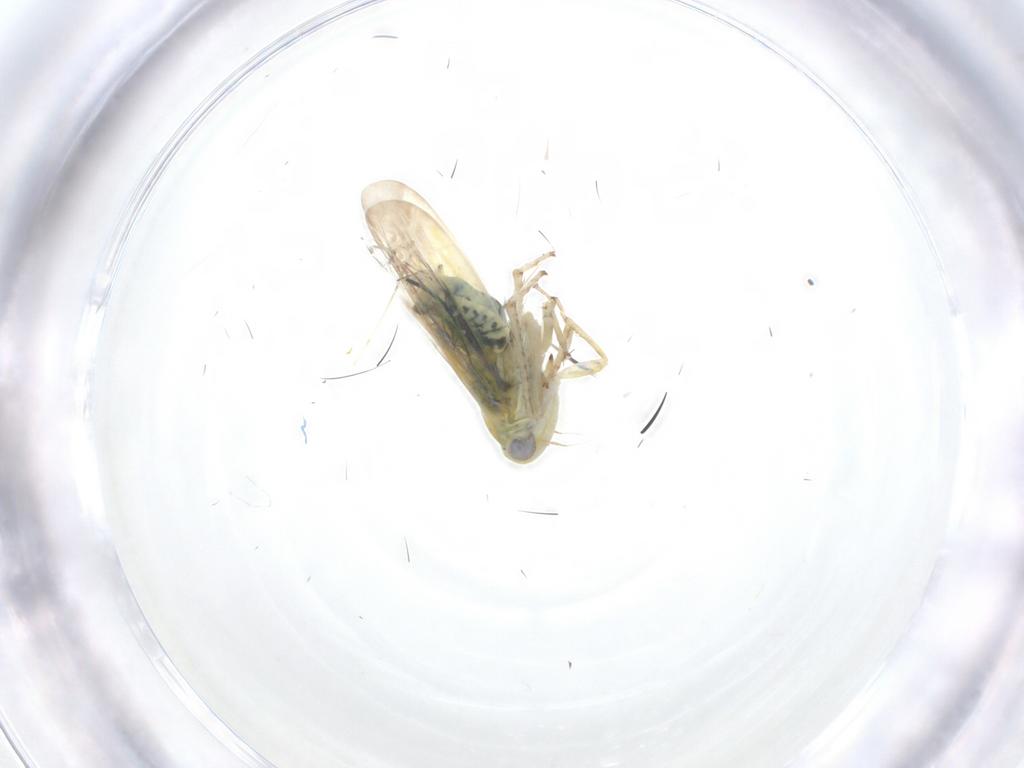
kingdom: Animalia
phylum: Arthropoda
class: Insecta
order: Hemiptera
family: Cicadellidae
